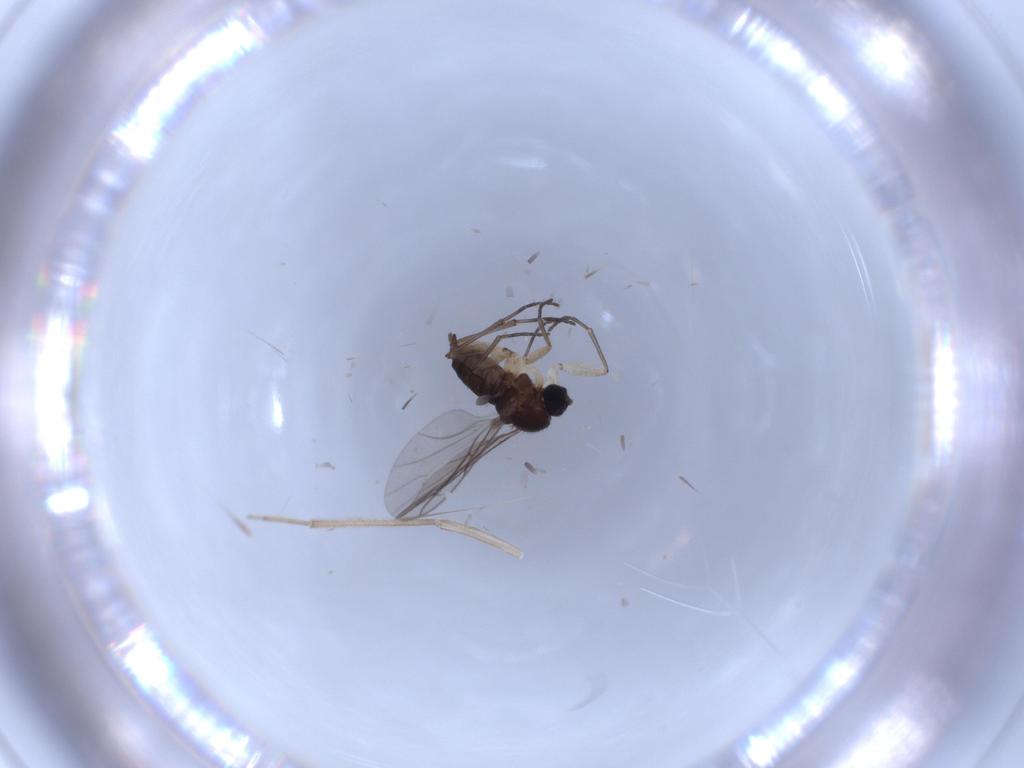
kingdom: Animalia
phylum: Arthropoda
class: Insecta
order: Diptera
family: Sciaridae
